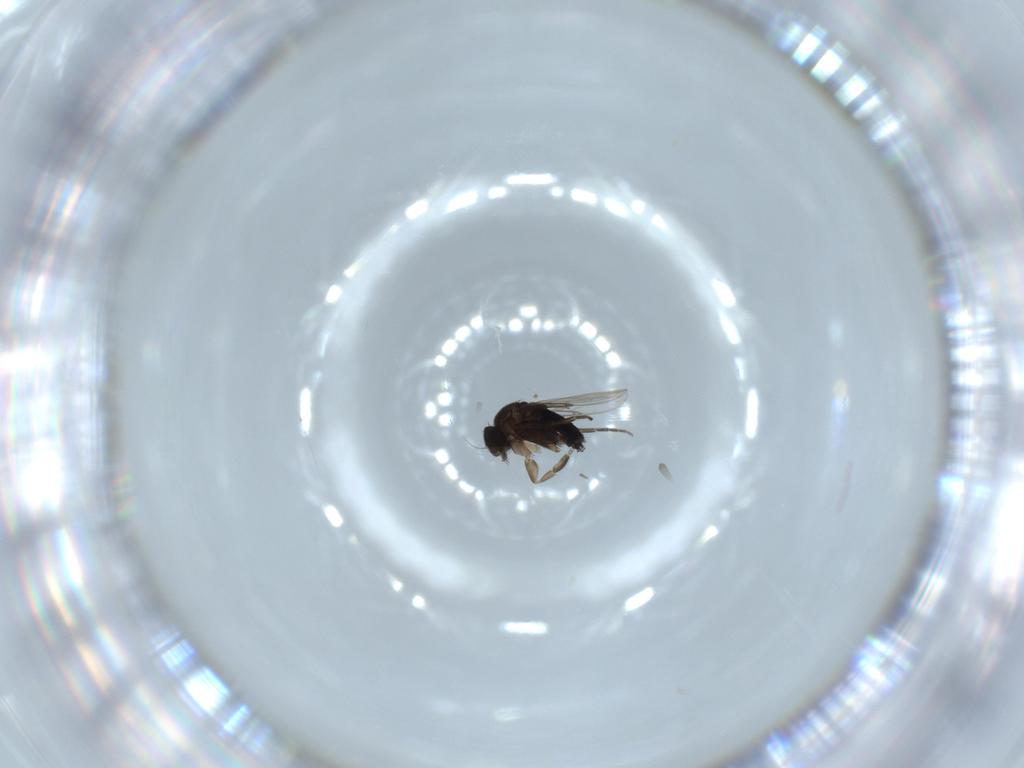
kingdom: Animalia
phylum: Arthropoda
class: Insecta
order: Diptera
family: Phoridae
